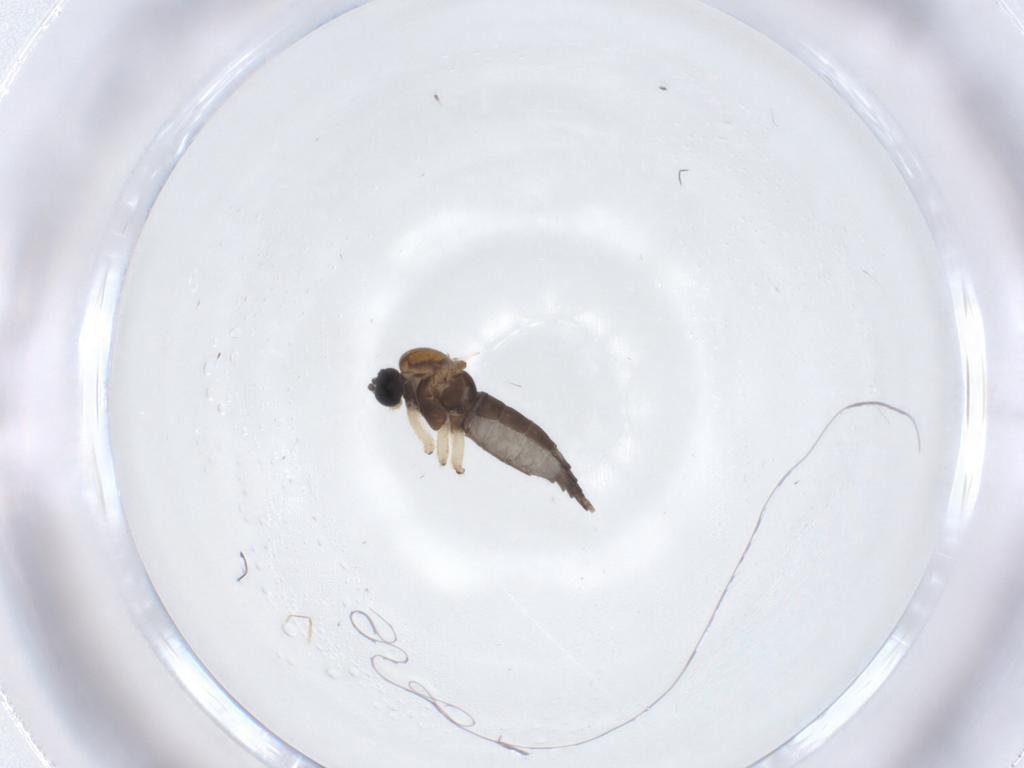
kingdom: Animalia
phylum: Arthropoda
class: Insecta
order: Diptera
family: Sciaridae
